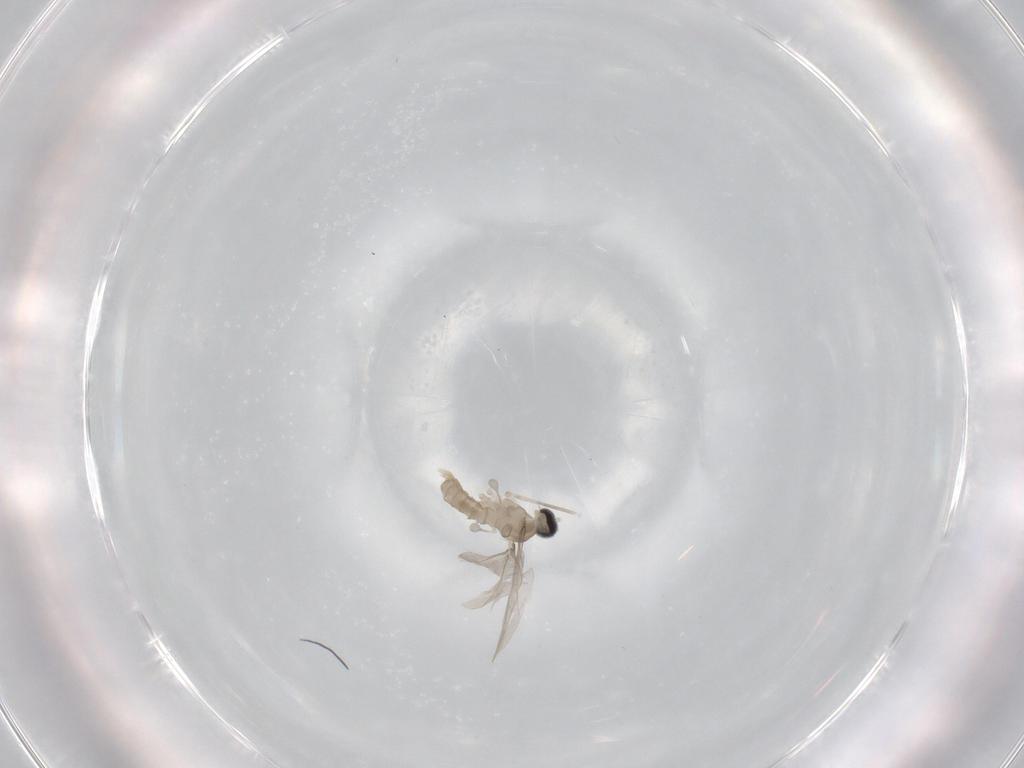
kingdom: Animalia
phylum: Arthropoda
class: Insecta
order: Diptera
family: Cecidomyiidae
